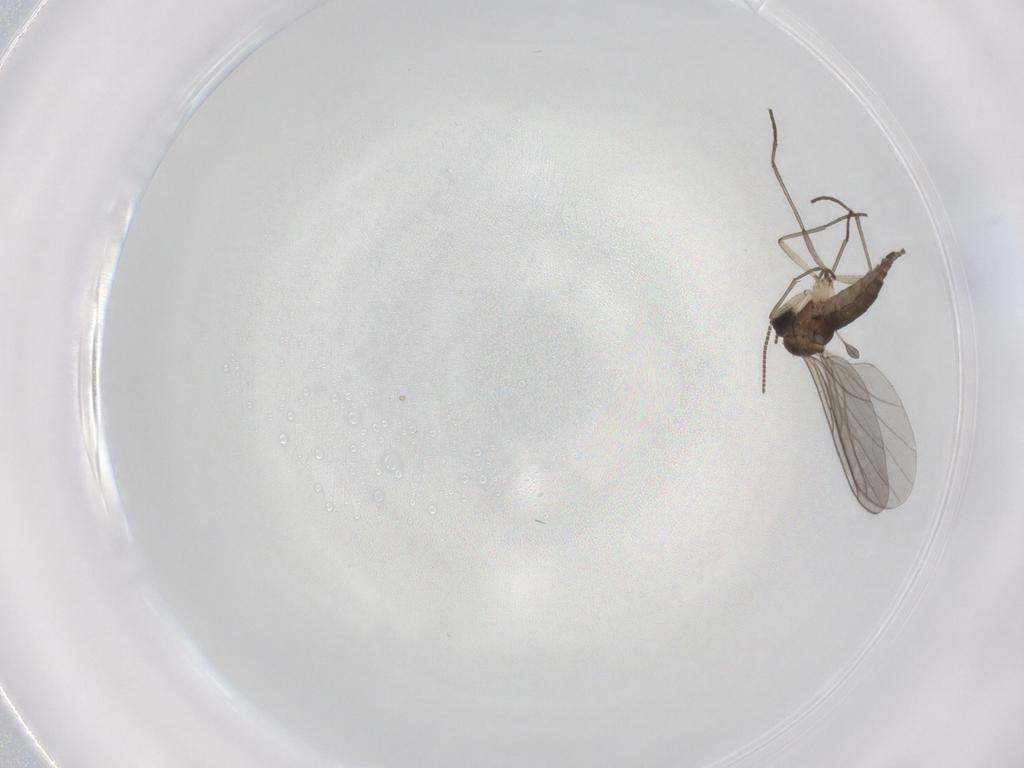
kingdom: Animalia
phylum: Arthropoda
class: Insecta
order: Diptera
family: Sciaridae
